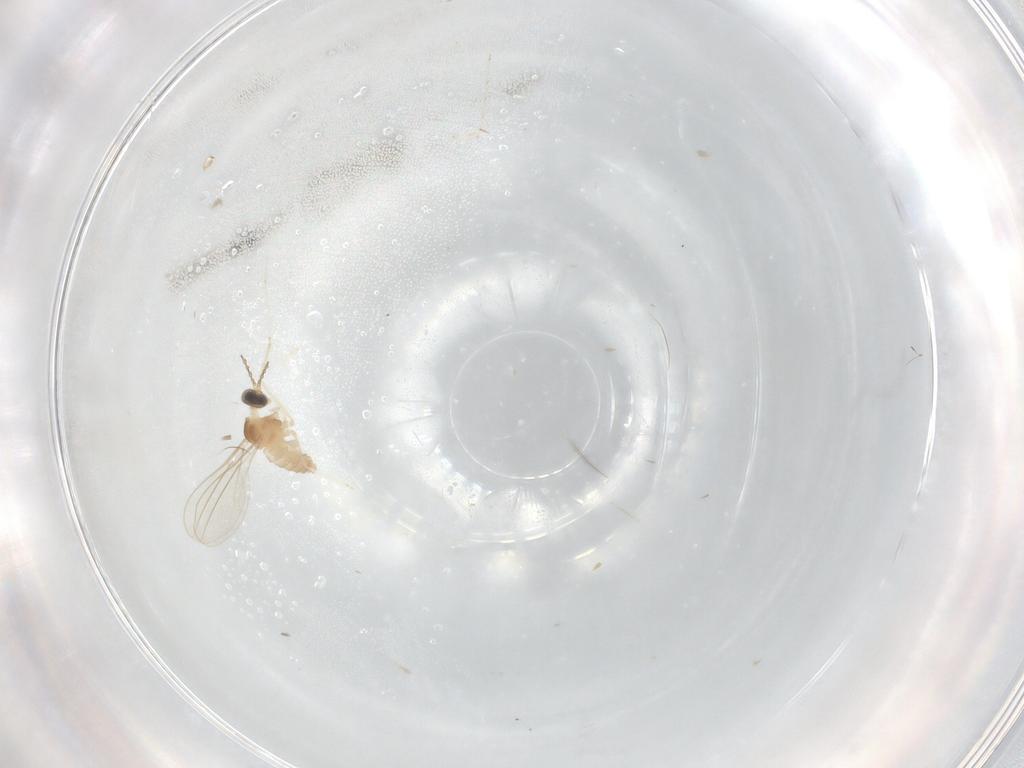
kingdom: Animalia
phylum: Arthropoda
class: Insecta
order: Diptera
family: Cecidomyiidae
